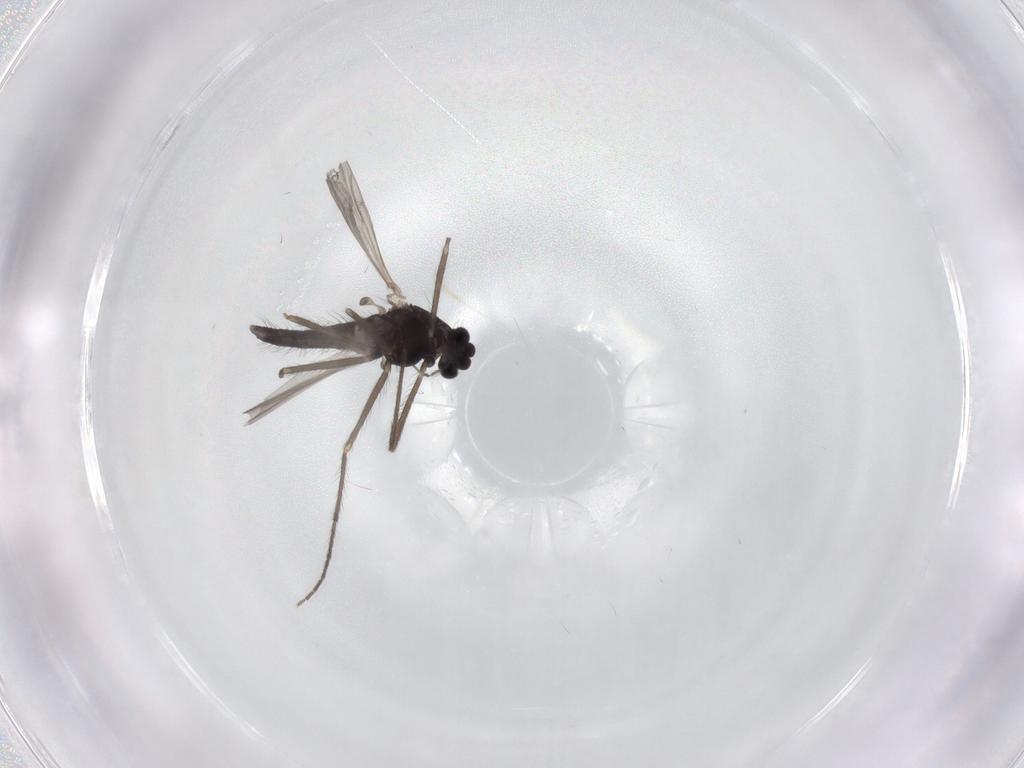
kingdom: Animalia
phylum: Arthropoda
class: Insecta
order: Diptera
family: Chironomidae
